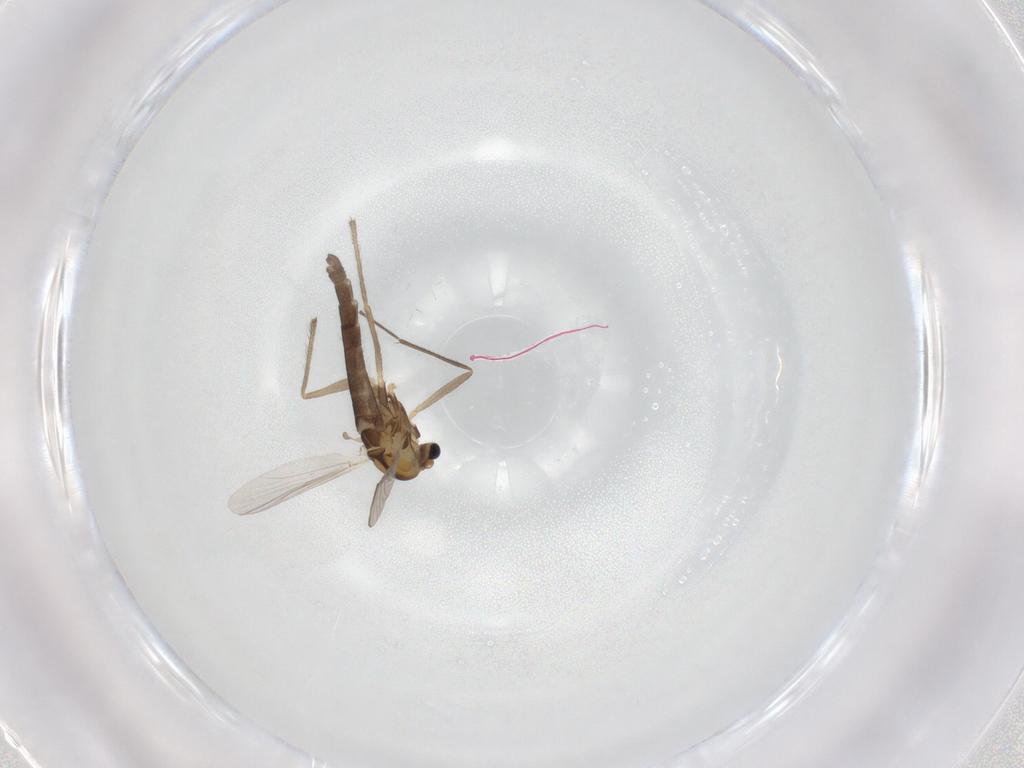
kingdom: Animalia
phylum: Arthropoda
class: Insecta
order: Diptera
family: Chironomidae
